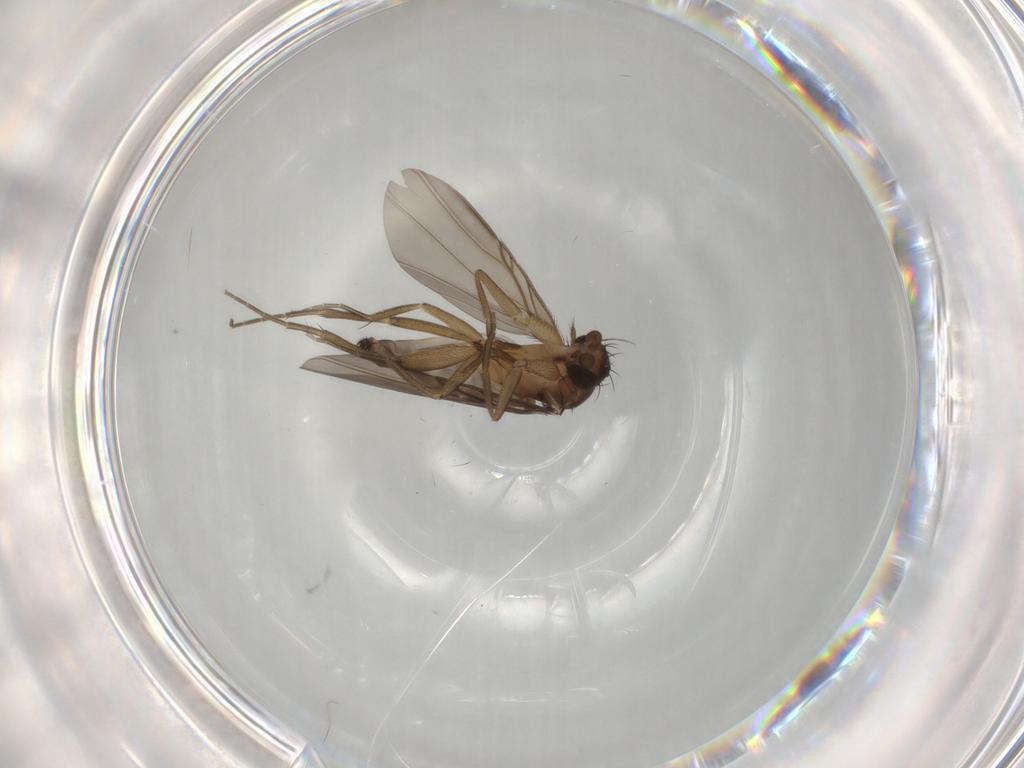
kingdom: Animalia
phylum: Arthropoda
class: Insecta
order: Diptera
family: Phoridae
